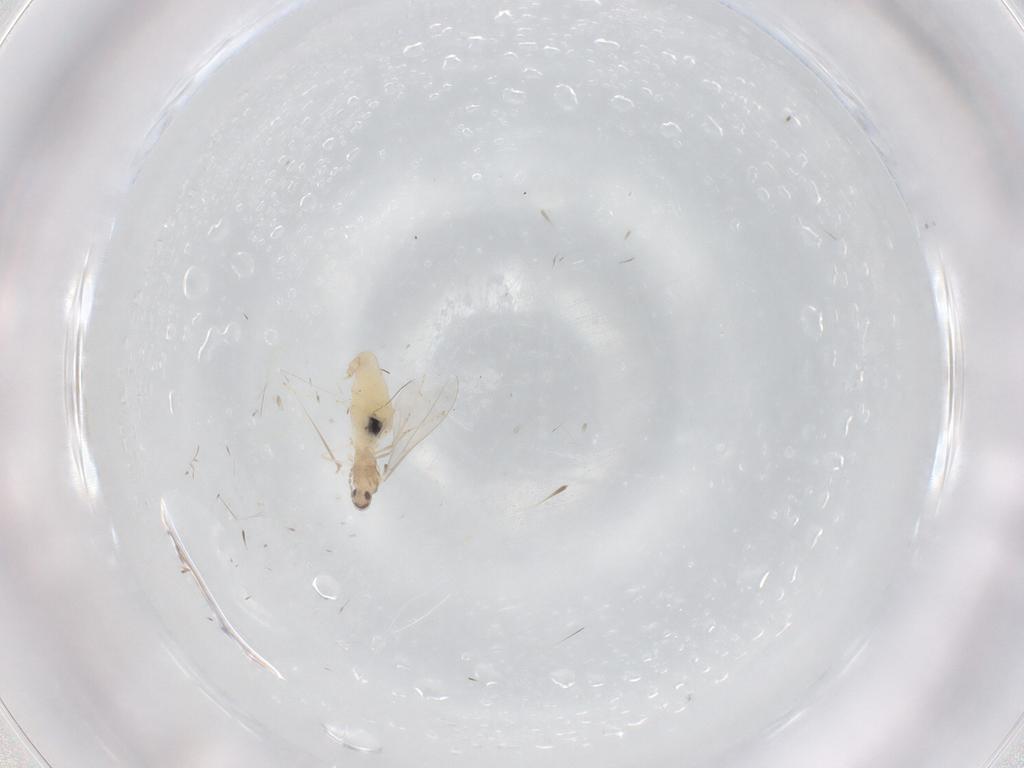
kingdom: Animalia
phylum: Arthropoda
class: Insecta
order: Diptera
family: Cecidomyiidae
